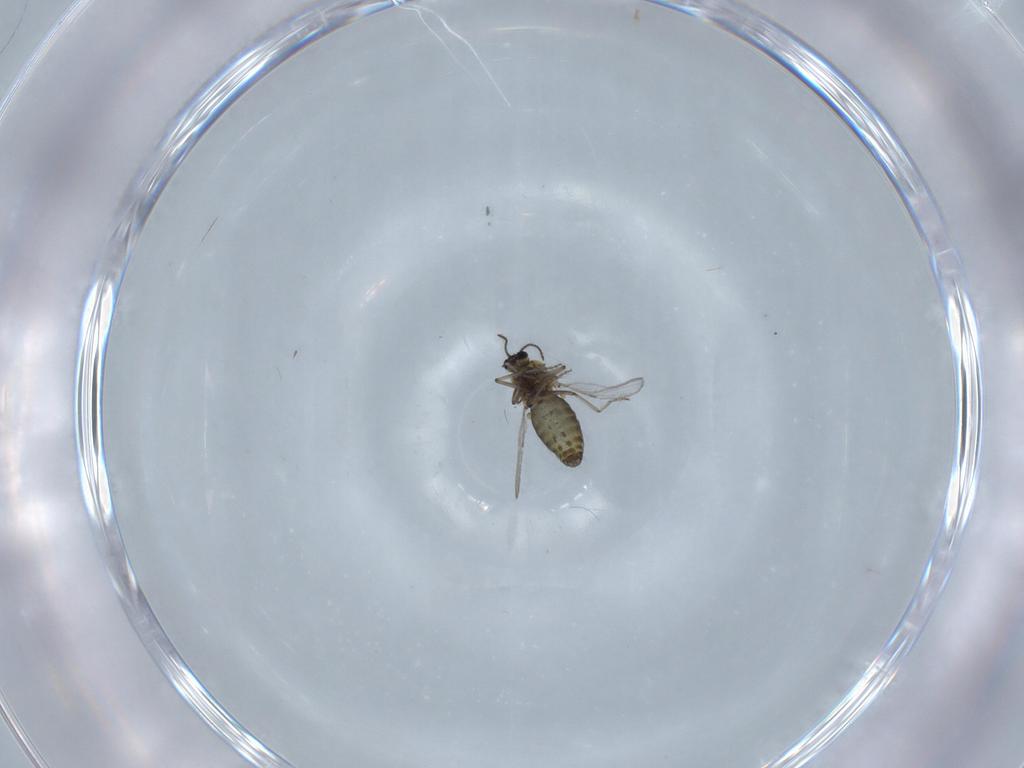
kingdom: Animalia
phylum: Arthropoda
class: Insecta
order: Diptera
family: Ceratopogonidae
